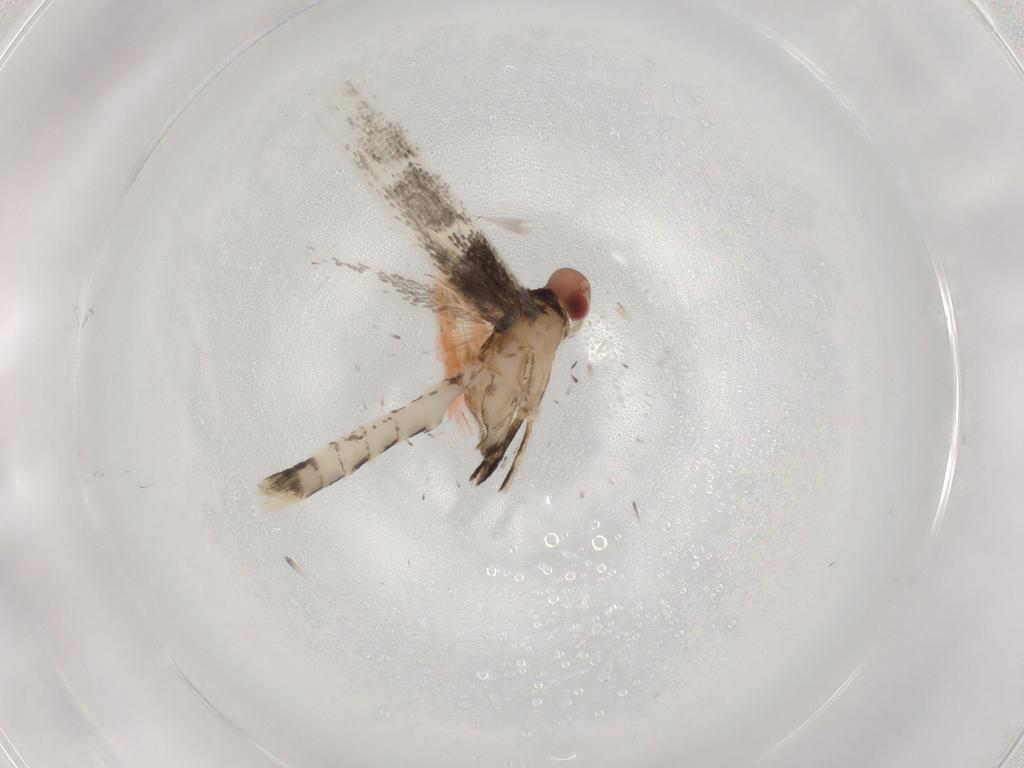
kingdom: Animalia
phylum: Arthropoda
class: Insecta
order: Lepidoptera
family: Gracillariidae
